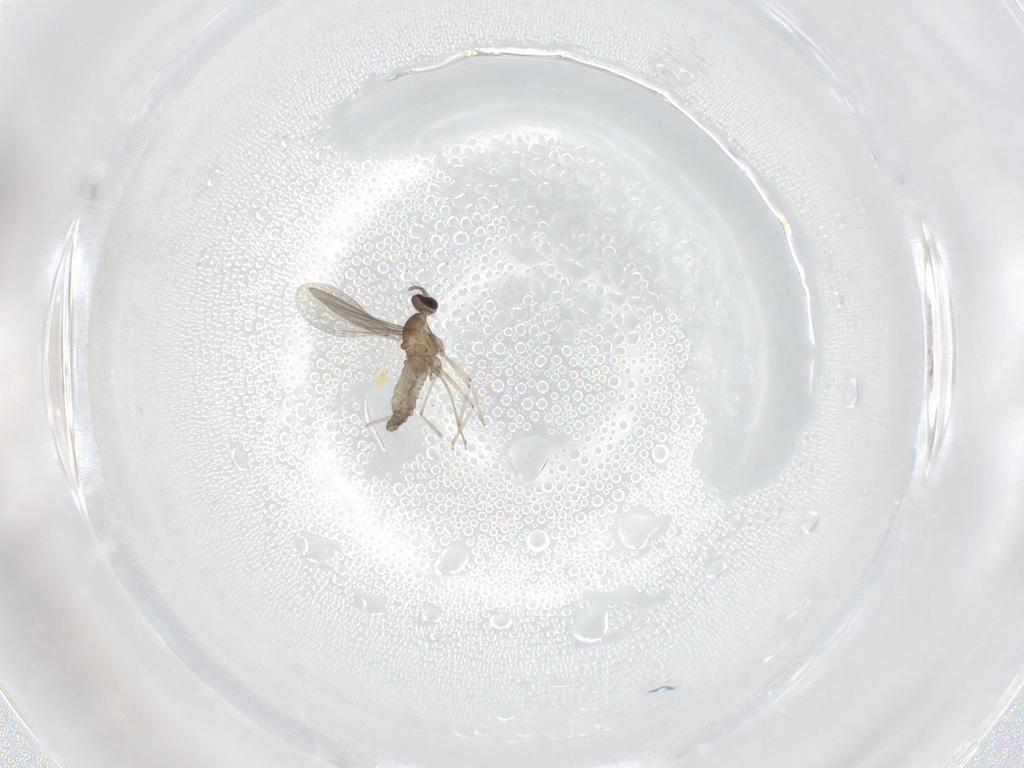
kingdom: Animalia
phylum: Arthropoda
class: Insecta
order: Diptera
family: Cecidomyiidae
